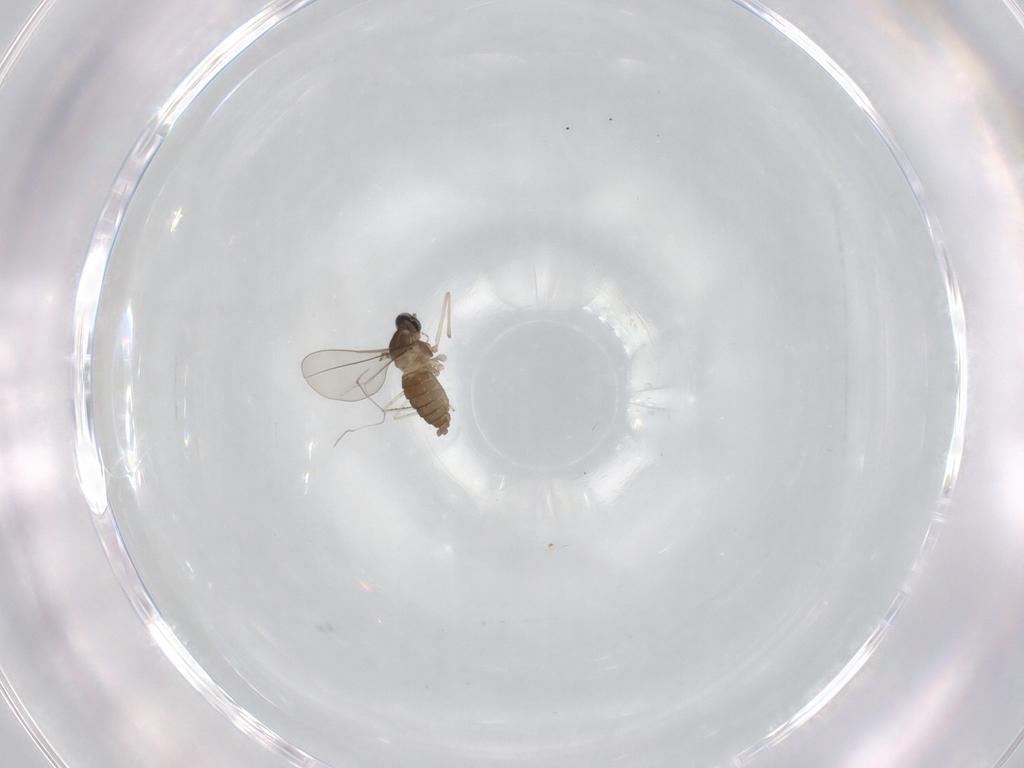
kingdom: Animalia
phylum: Arthropoda
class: Insecta
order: Diptera
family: Cecidomyiidae
